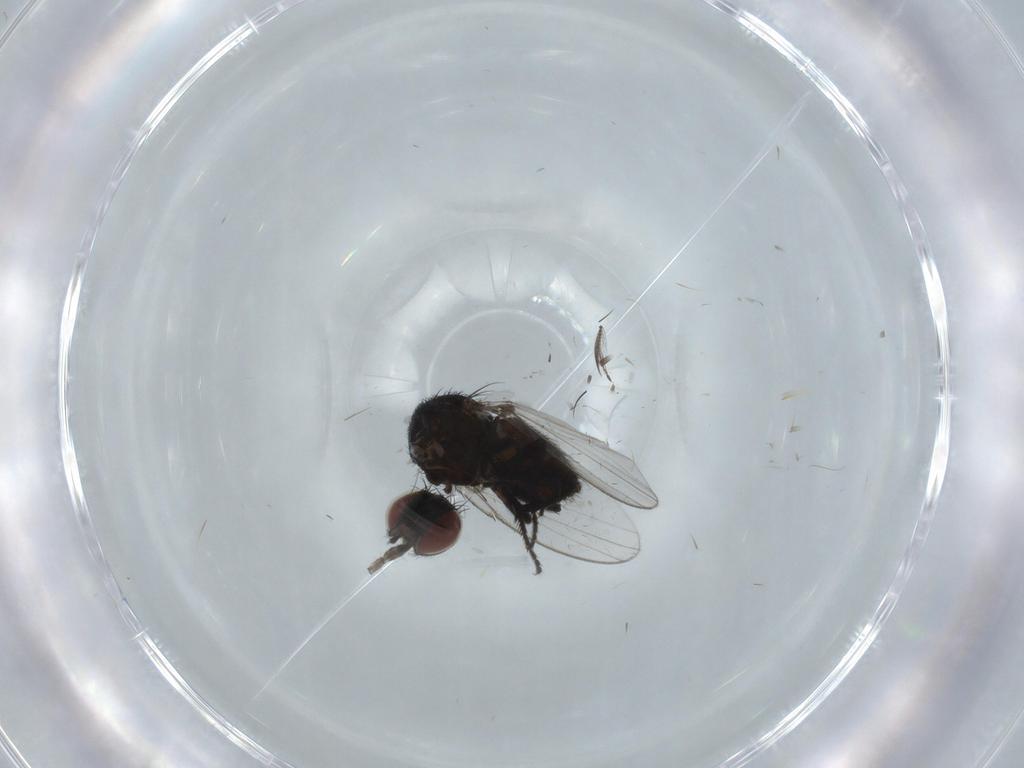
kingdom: Animalia
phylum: Arthropoda
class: Insecta
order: Diptera
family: Milichiidae
